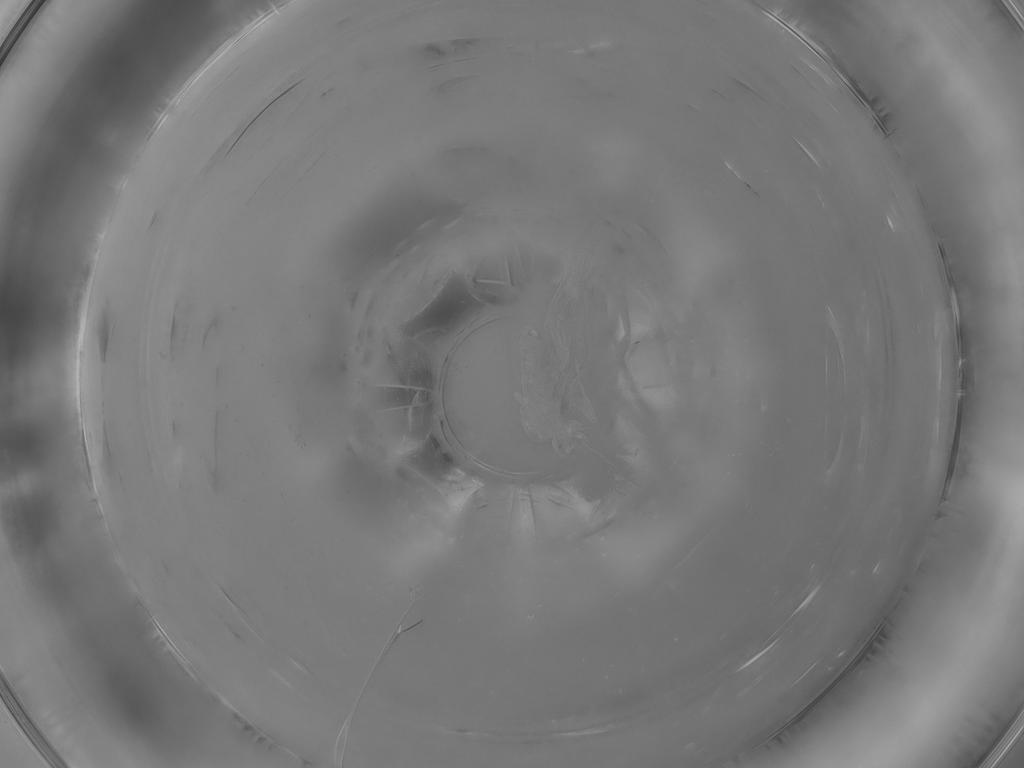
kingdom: Animalia
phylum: Arthropoda
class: Insecta
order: Diptera
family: Phoridae
